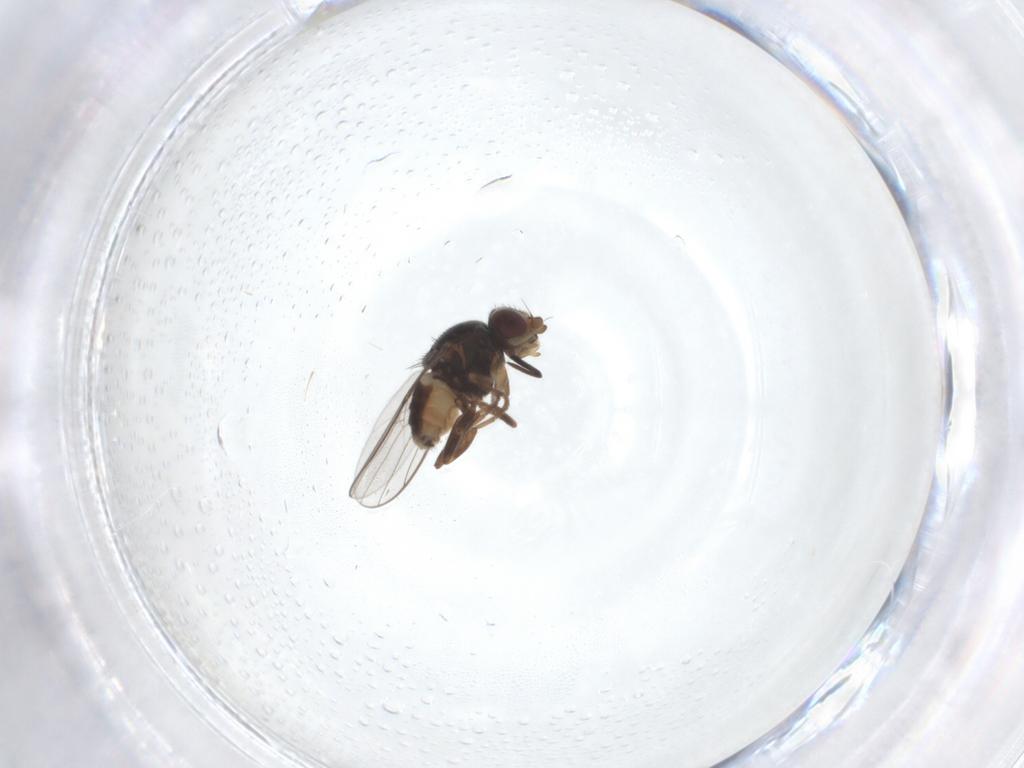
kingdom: Animalia
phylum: Arthropoda
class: Insecta
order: Diptera
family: Chloropidae
